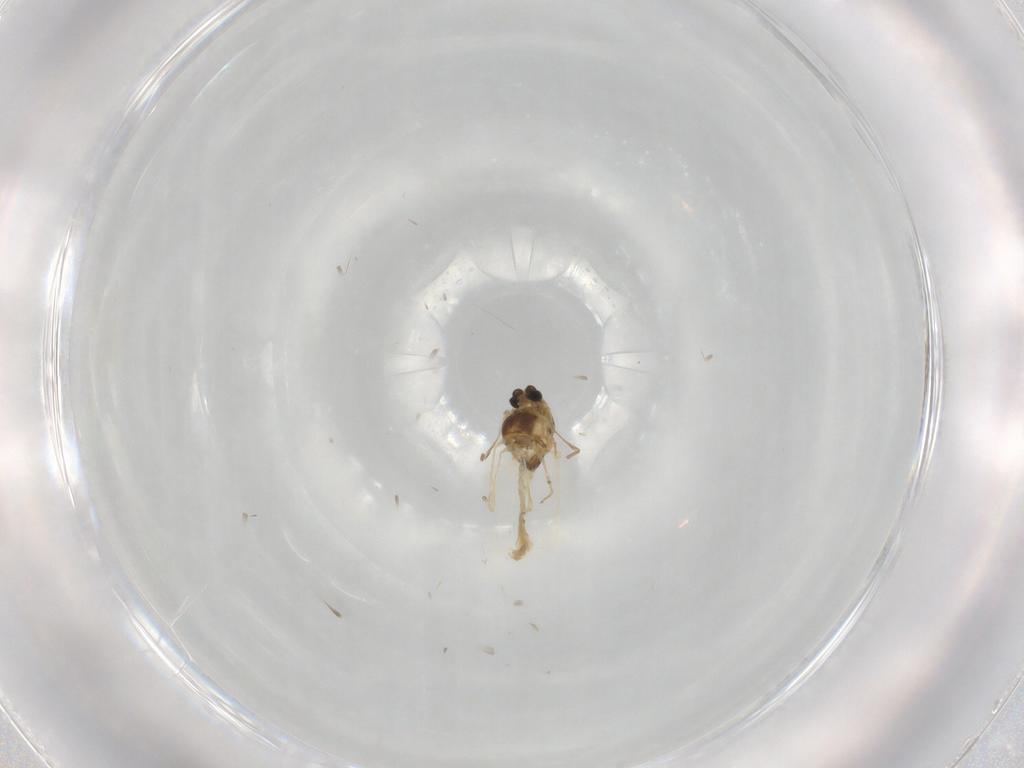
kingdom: Animalia
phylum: Arthropoda
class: Insecta
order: Diptera
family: Chironomidae
